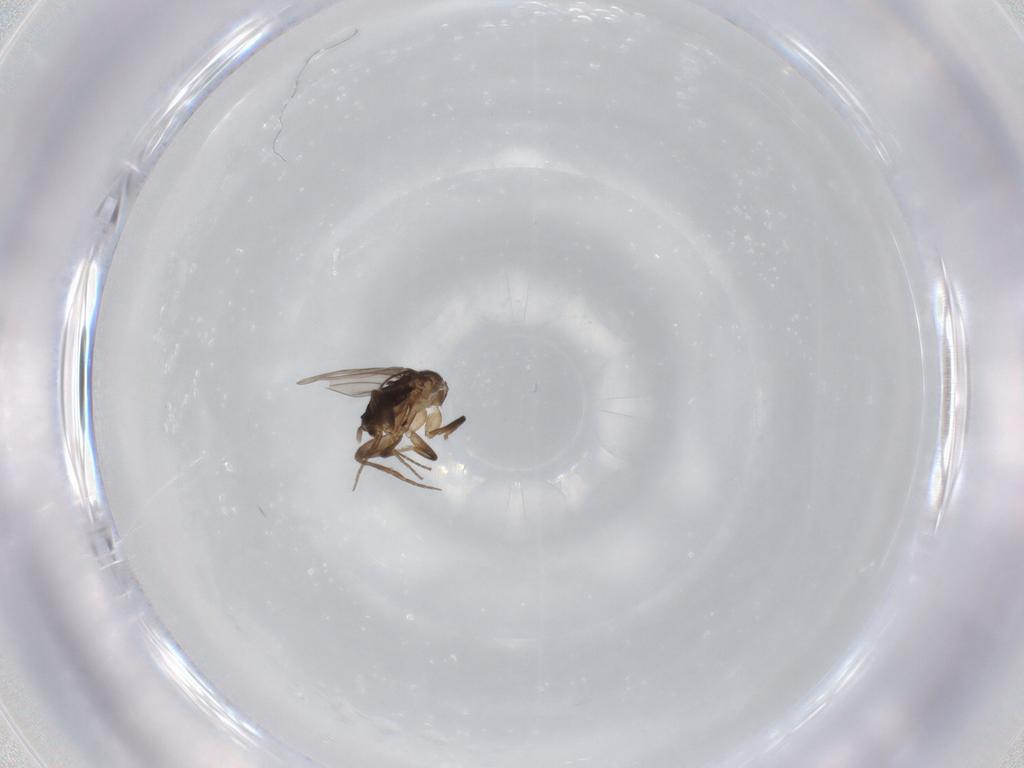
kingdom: Animalia
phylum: Arthropoda
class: Insecta
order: Diptera
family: Phoridae
